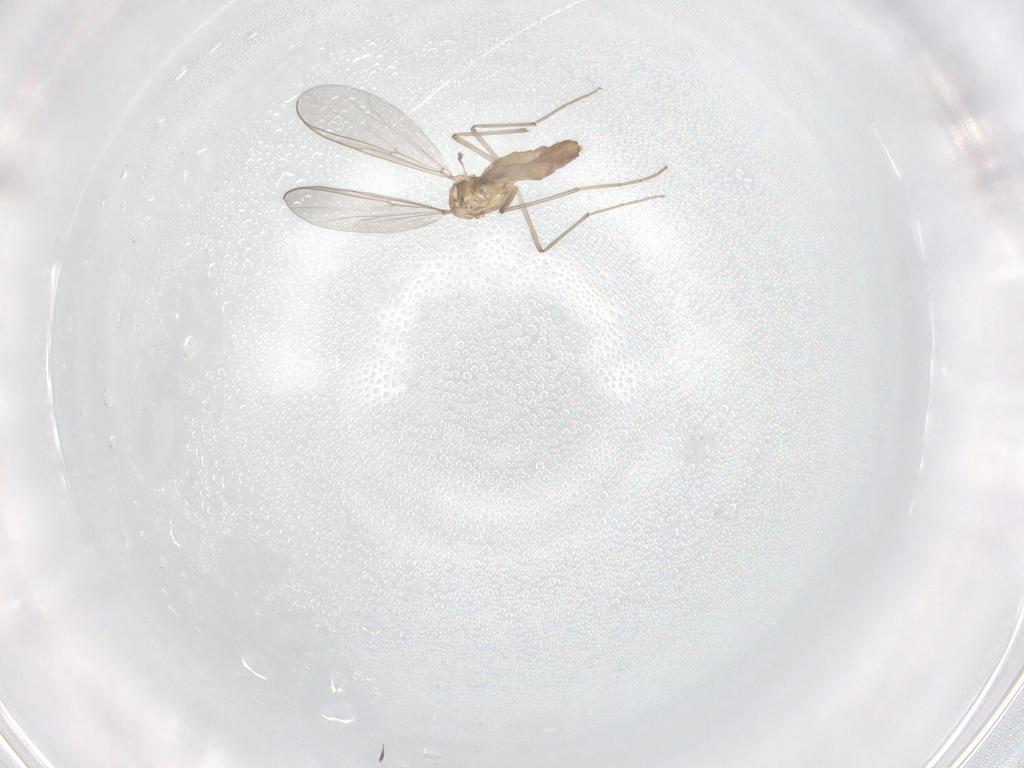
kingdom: Animalia
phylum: Arthropoda
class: Insecta
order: Diptera
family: Chironomidae
